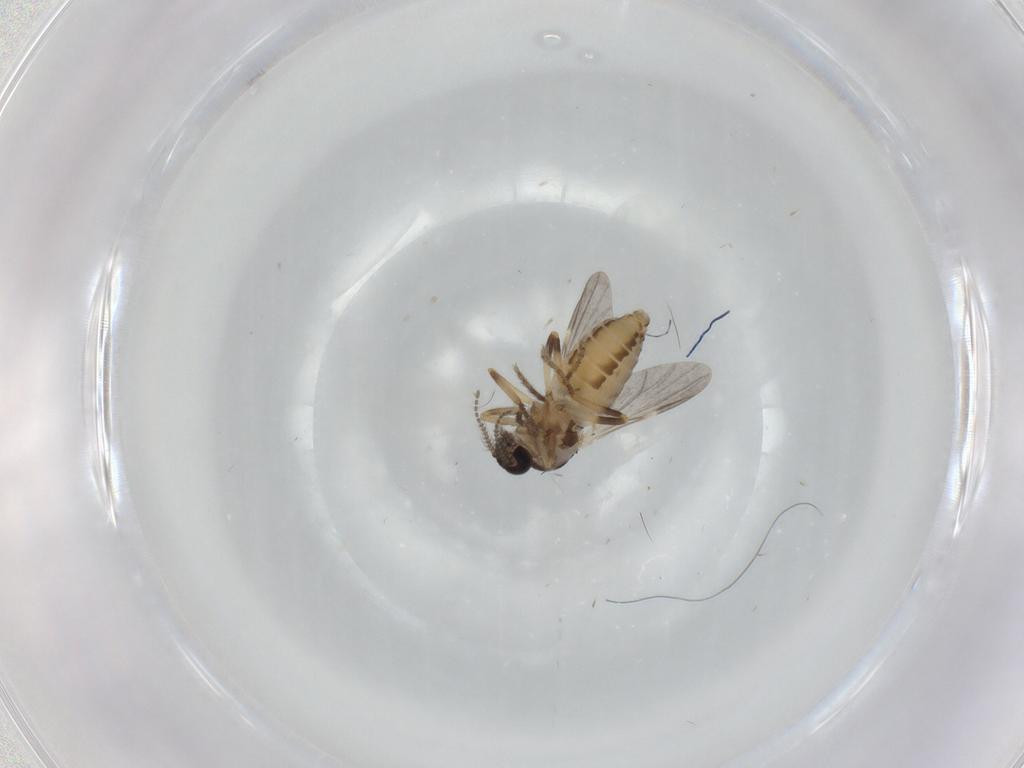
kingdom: Animalia
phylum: Arthropoda
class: Insecta
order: Diptera
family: Ceratopogonidae
